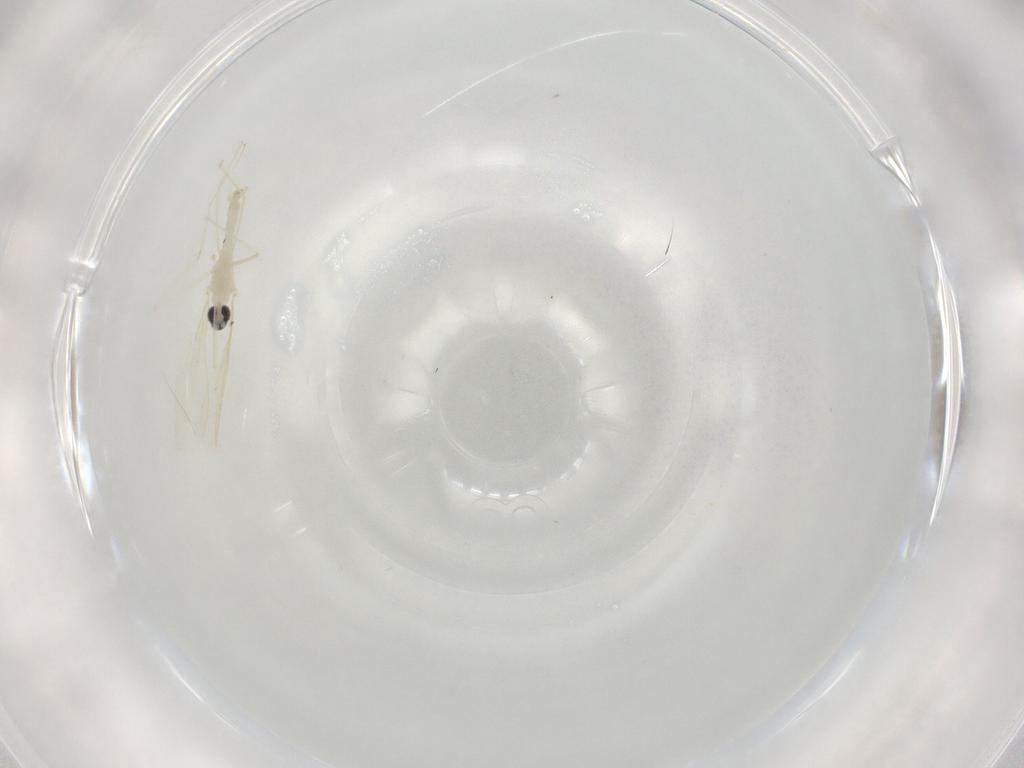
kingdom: Animalia
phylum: Arthropoda
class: Insecta
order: Diptera
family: Cecidomyiidae
